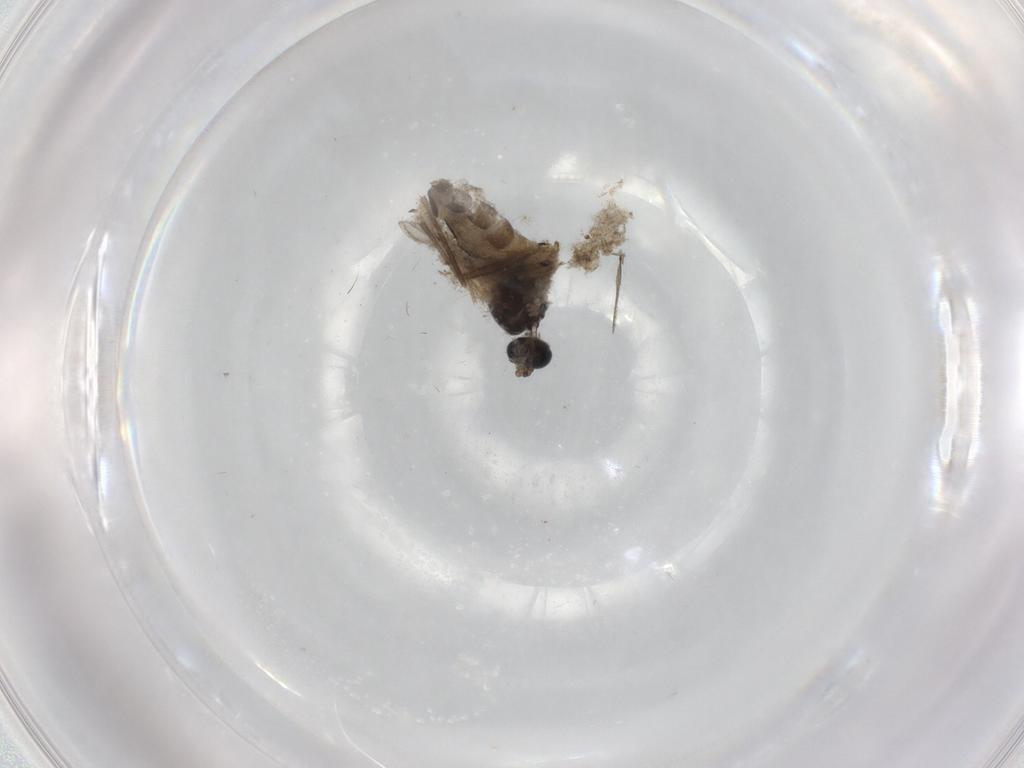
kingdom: Animalia
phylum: Arthropoda
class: Insecta
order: Diptera
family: Sciaridae
